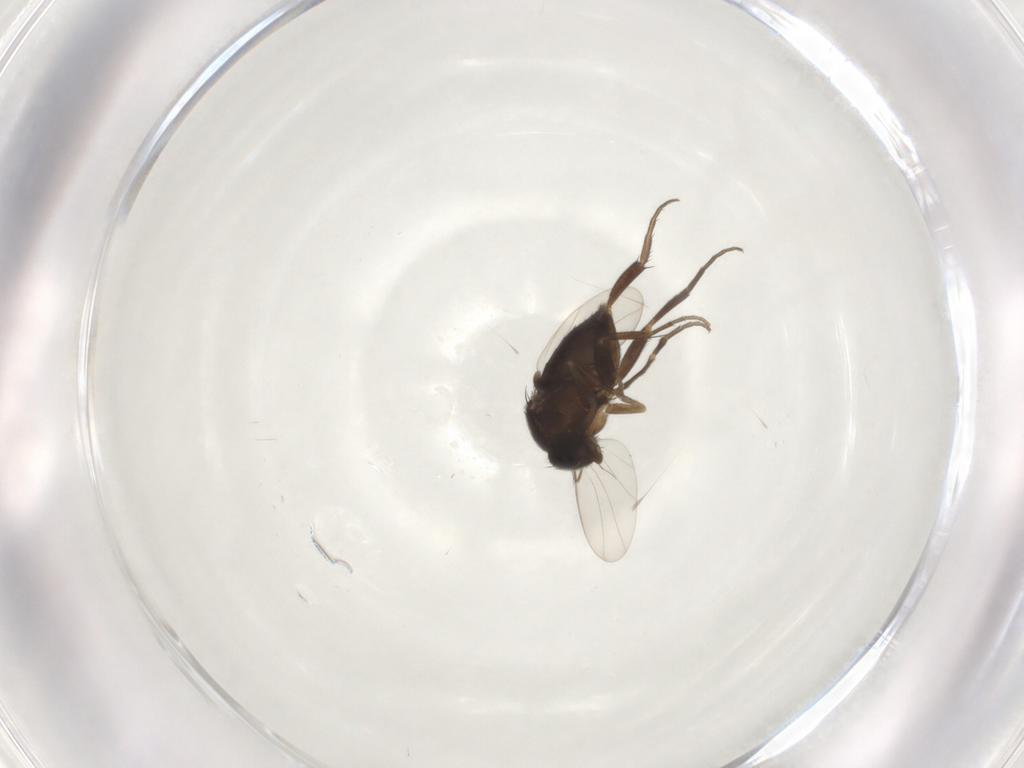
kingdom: Animalia
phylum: Arthropoda
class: Insecta
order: Diptera
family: Phoridae
